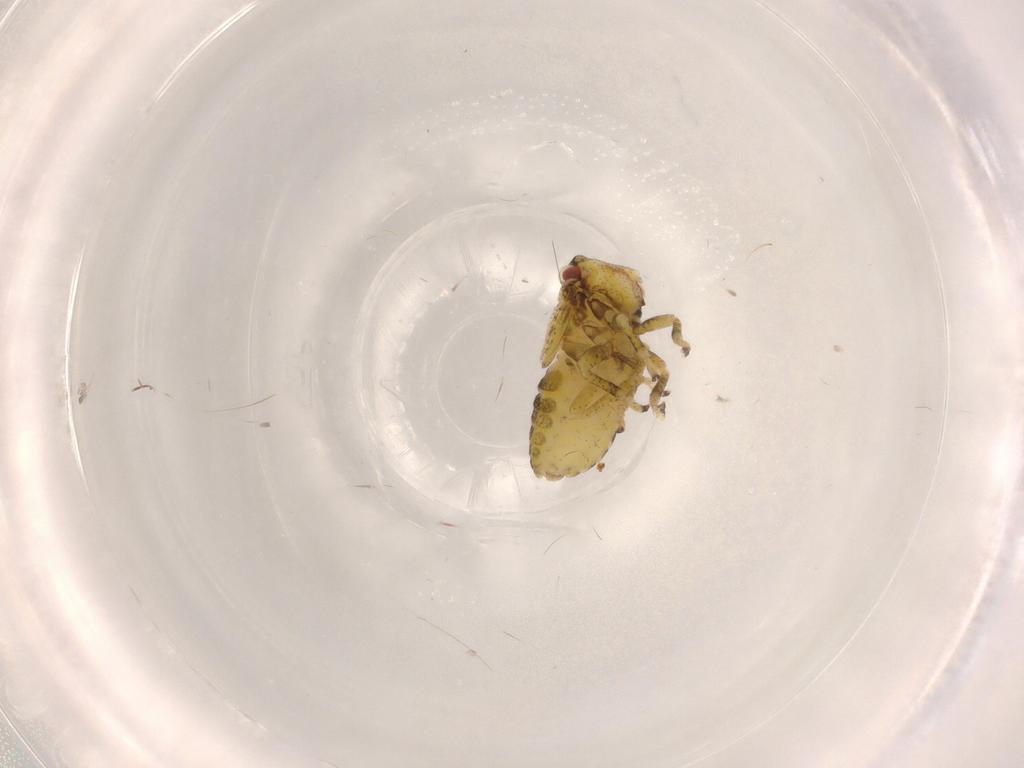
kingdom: Animalia
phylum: Arthropoda
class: Insecta
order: Hemiptera
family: Cicadellidae
